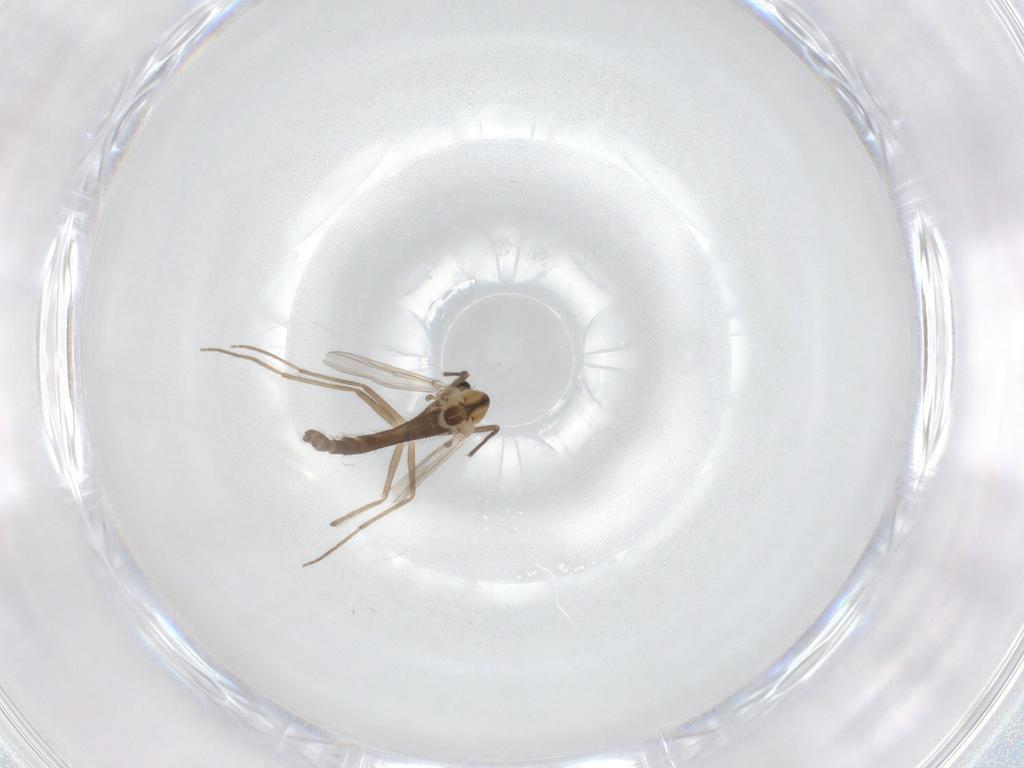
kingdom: Animalia
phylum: Arthropoda
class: Insecta
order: Diptera
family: Chironomidae
